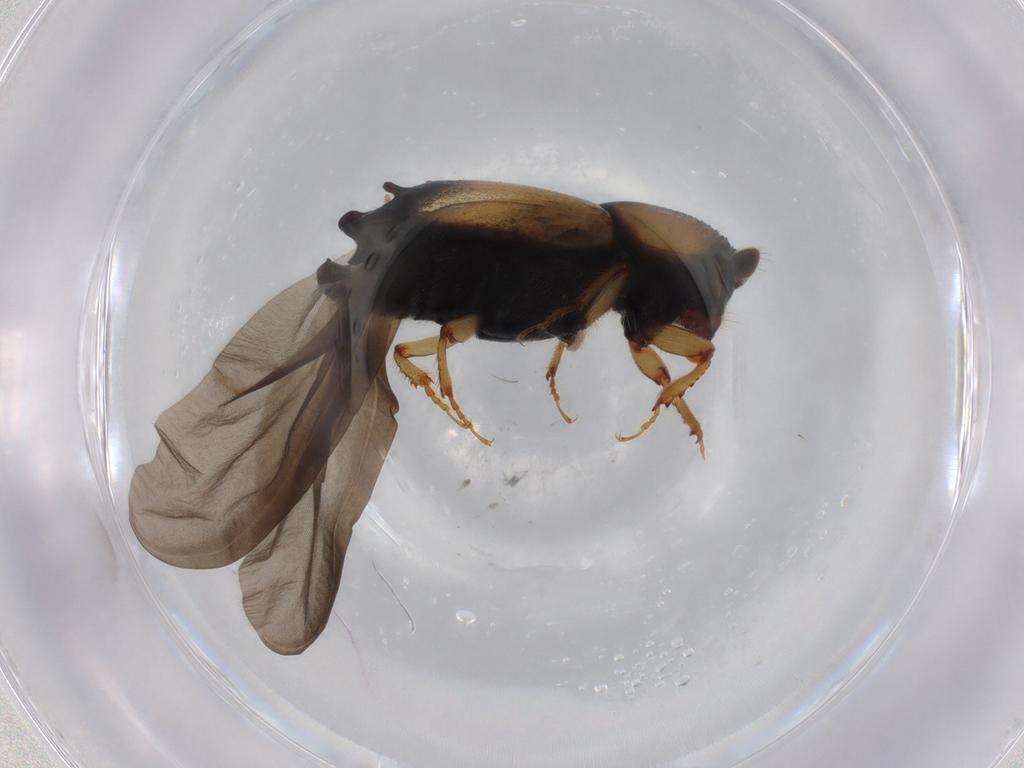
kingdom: Animalia
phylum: Arthropoda
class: Insecta
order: Coleoptera
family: Curculionidae
